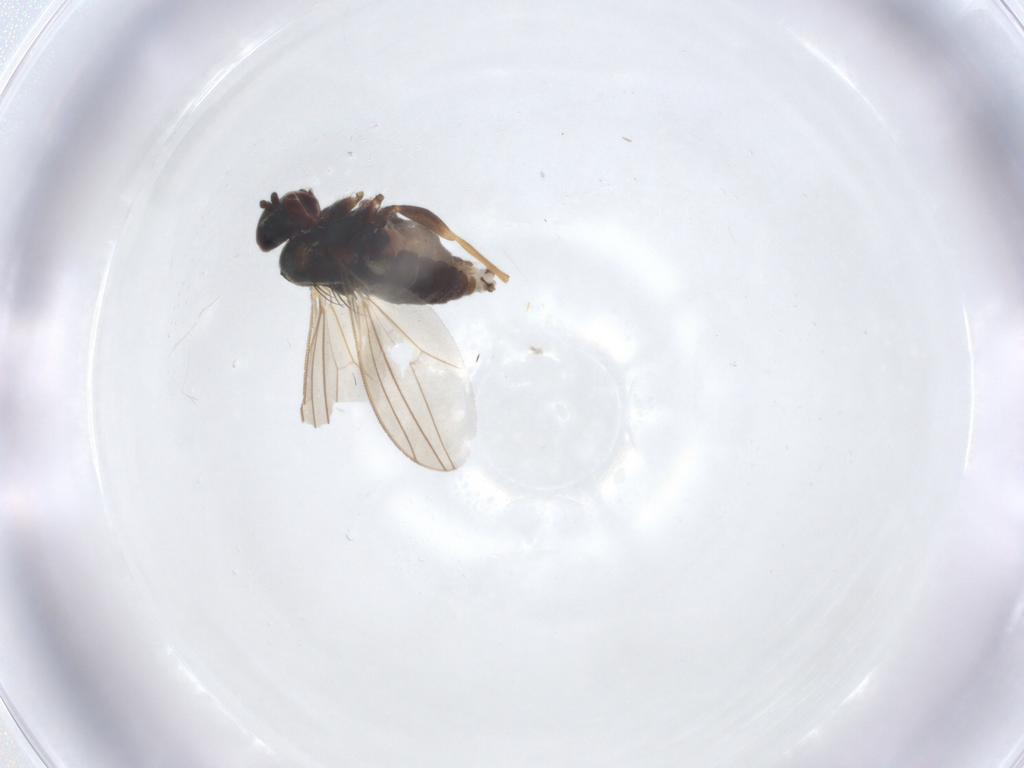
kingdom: Animalia
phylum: Arthropoda
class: Insecta
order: Diptera
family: Dolichopodidae
